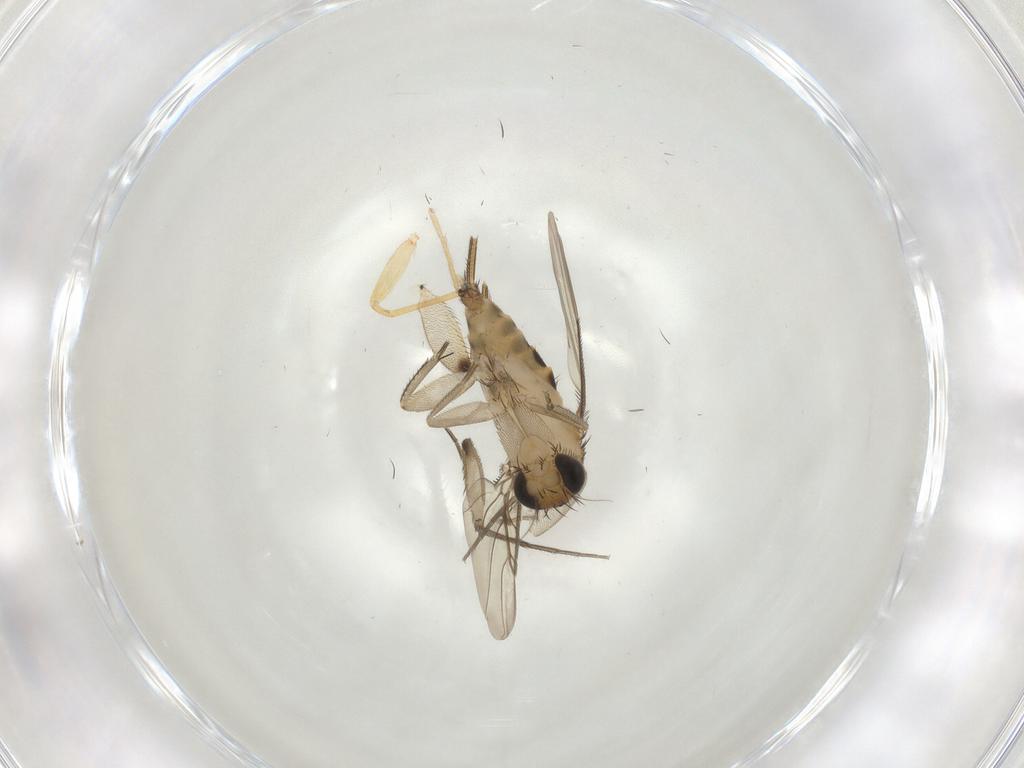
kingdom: Animalia
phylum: Arthropoda
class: Insecta
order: Diptera
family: Phoridae
